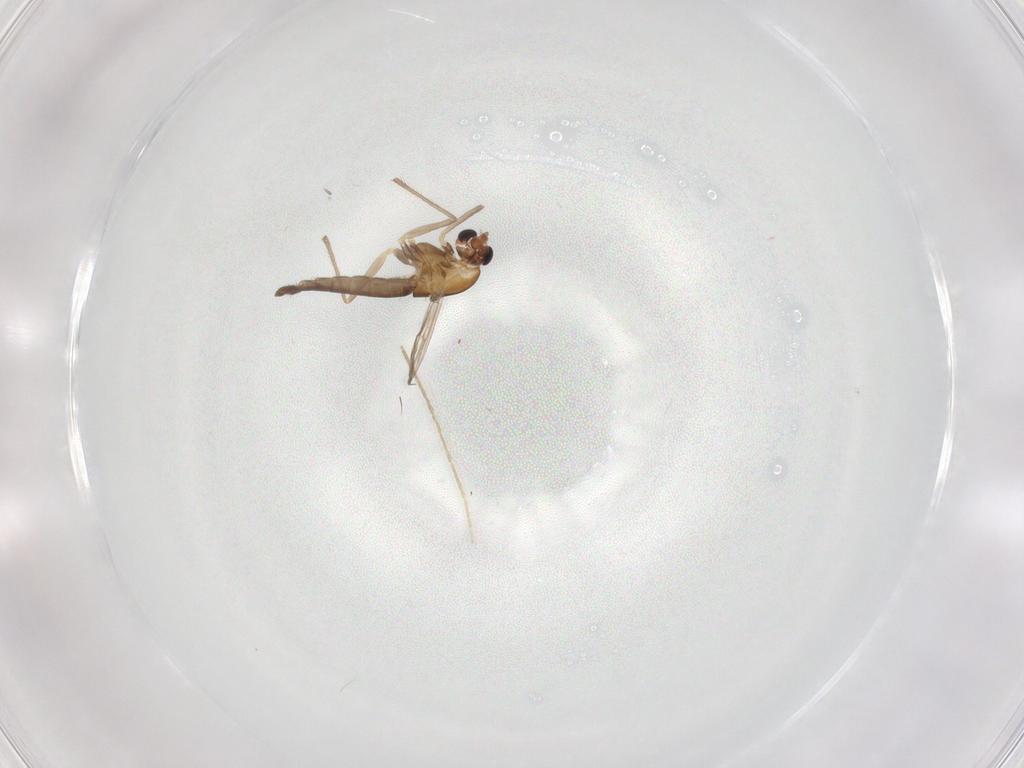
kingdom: Animalia
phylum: Arthropoda
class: Insecta
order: Diptera
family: Chironomidae
